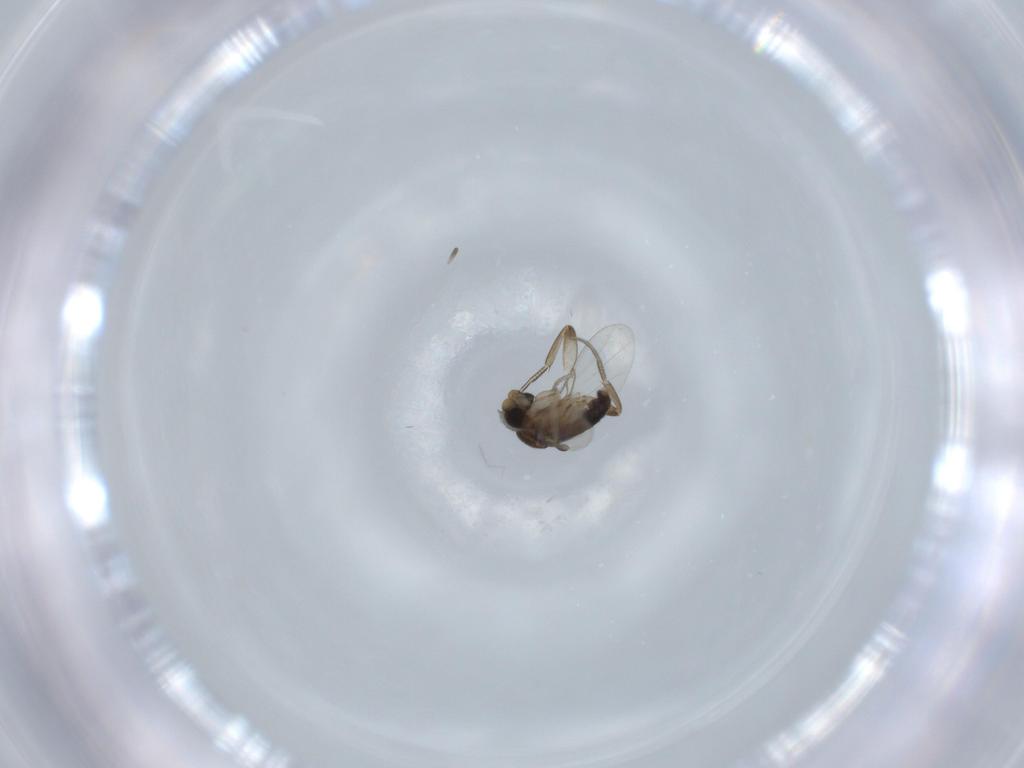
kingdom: Animalia
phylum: Arthropoda
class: Insecta
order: Diptera
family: Phoridae
